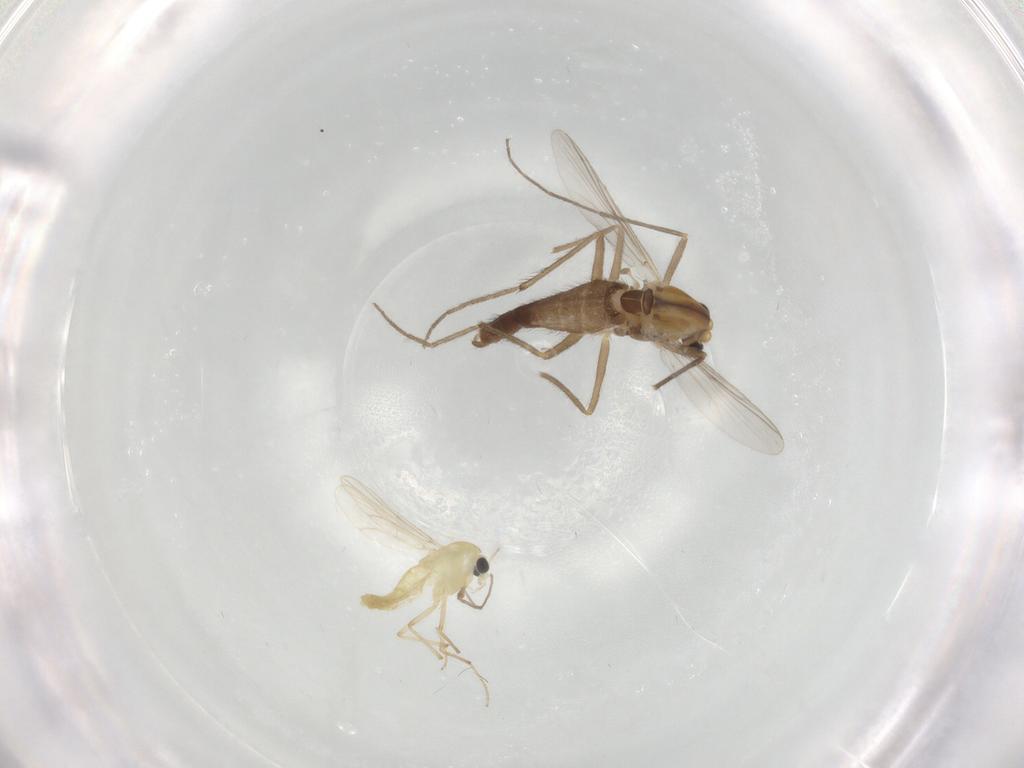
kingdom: Animalia
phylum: Arthropoda
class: Insecta
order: Diptera
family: Chironomidae
